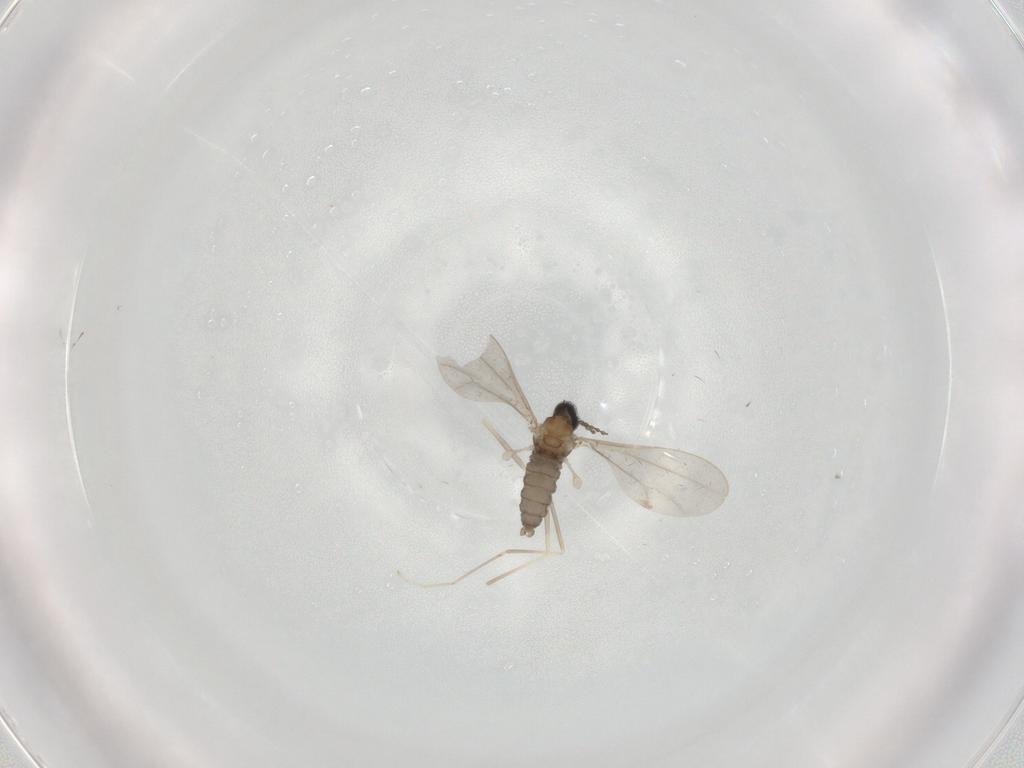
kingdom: Animalia
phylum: Arthropoda
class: Insecta
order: Diptera
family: Cecidomyiidae
